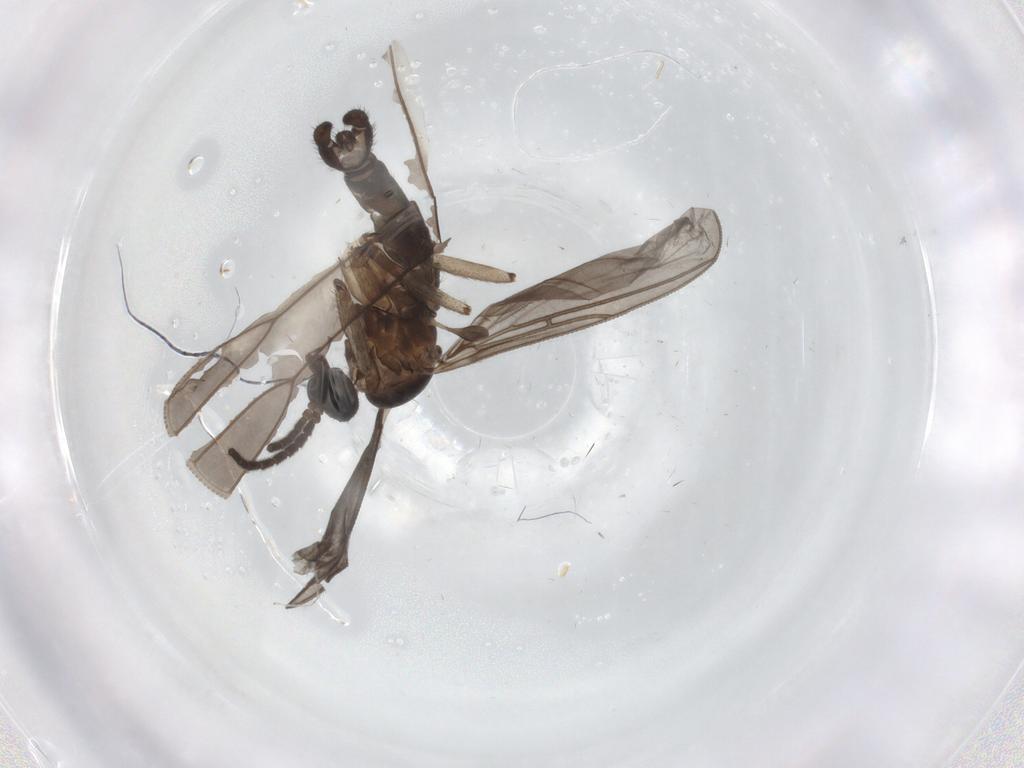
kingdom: Animalia
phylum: Arthropoda
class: Insecta
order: Diptera
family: Sciaridae
